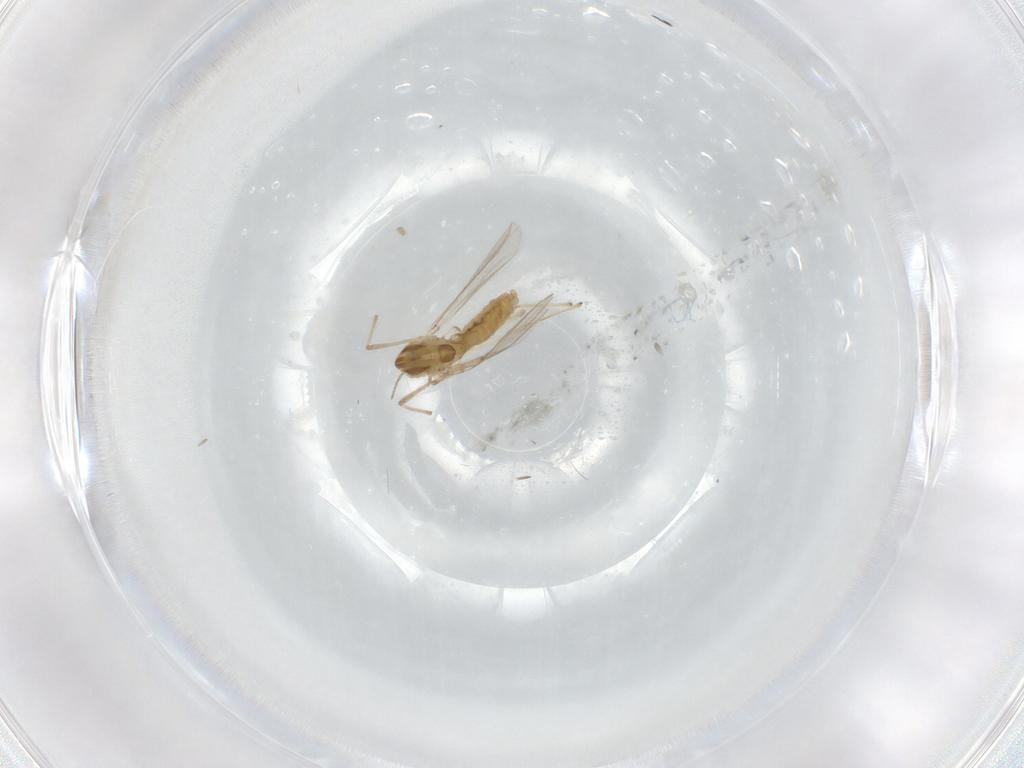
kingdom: Animalia
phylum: Arthropoda
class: Insecta
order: Diptera
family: Chironomidae
